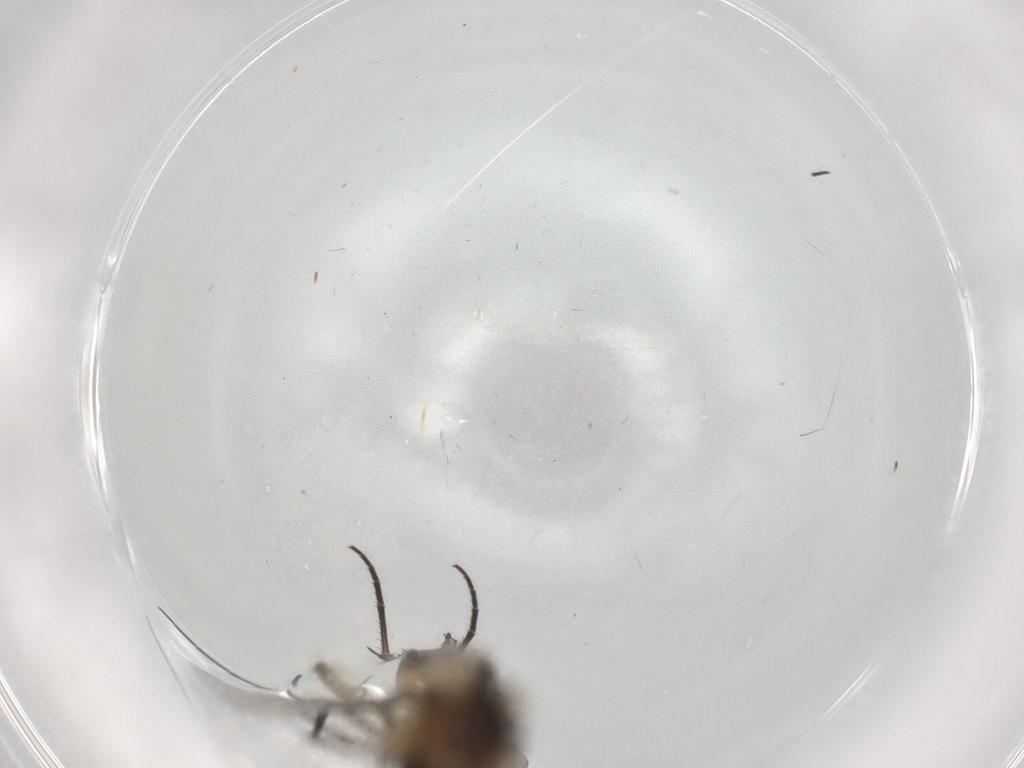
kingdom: Animalia
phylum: Arthropoda
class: Insecta
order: Diptera
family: Mycetophilidae
